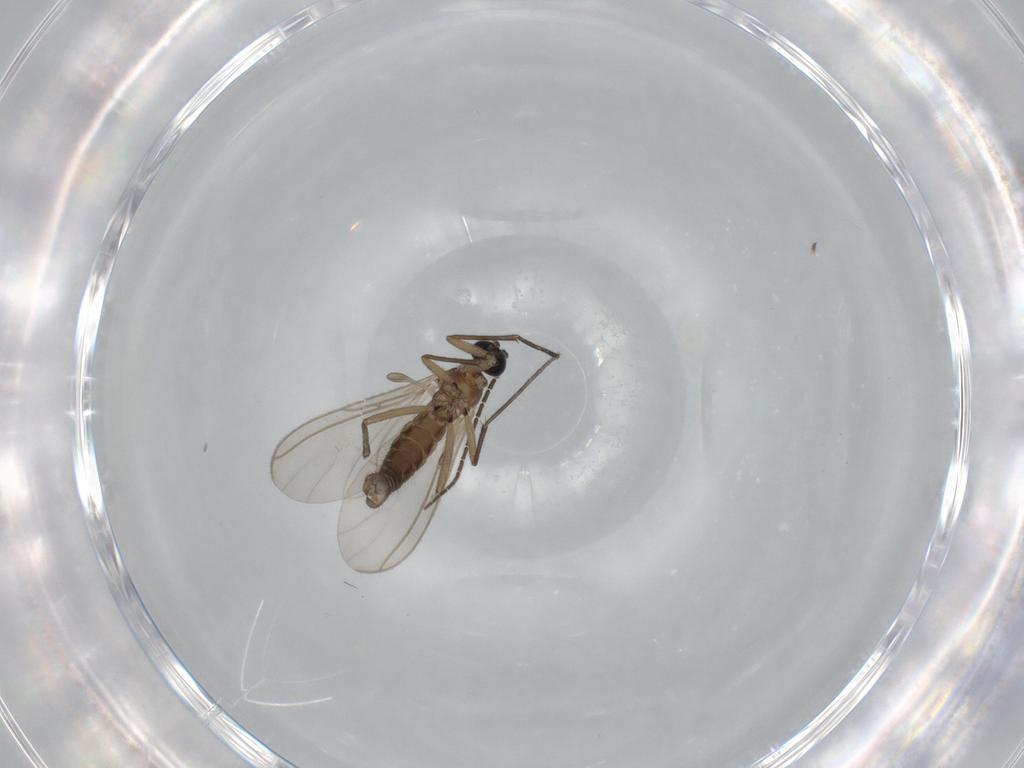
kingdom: Animalia
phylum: Arthropoda
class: Insecta
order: Diptera
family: Sciaridae
